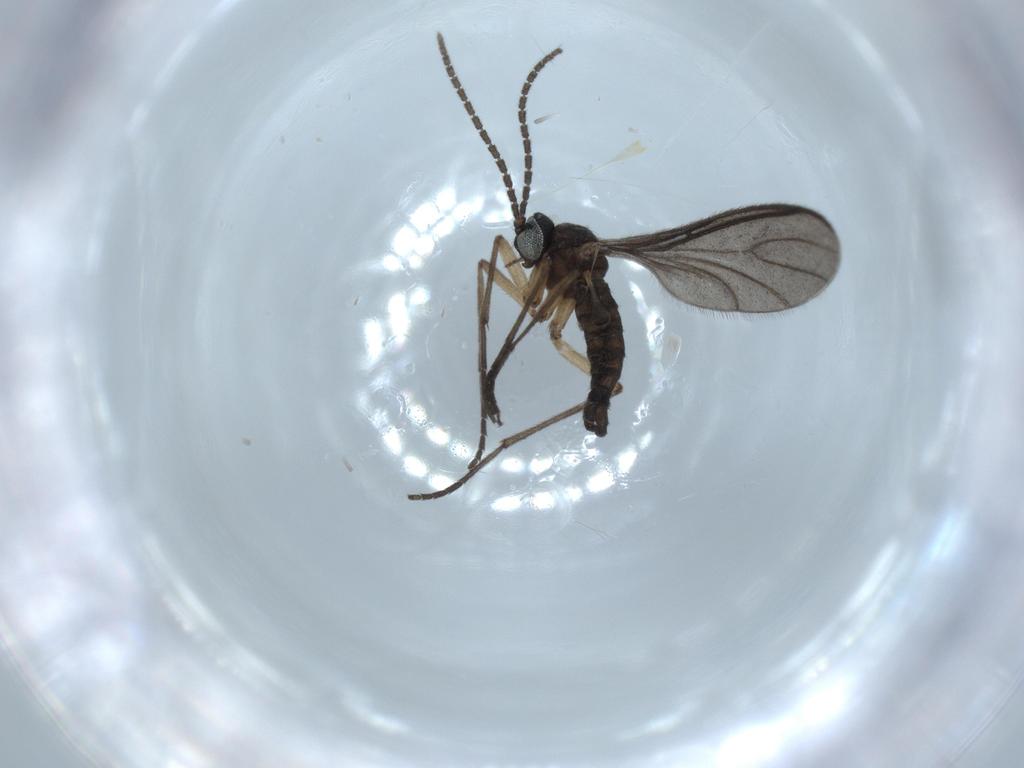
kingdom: Animalia
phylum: Arthropoda
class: Insecta
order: Diptera
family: Sciaridae
